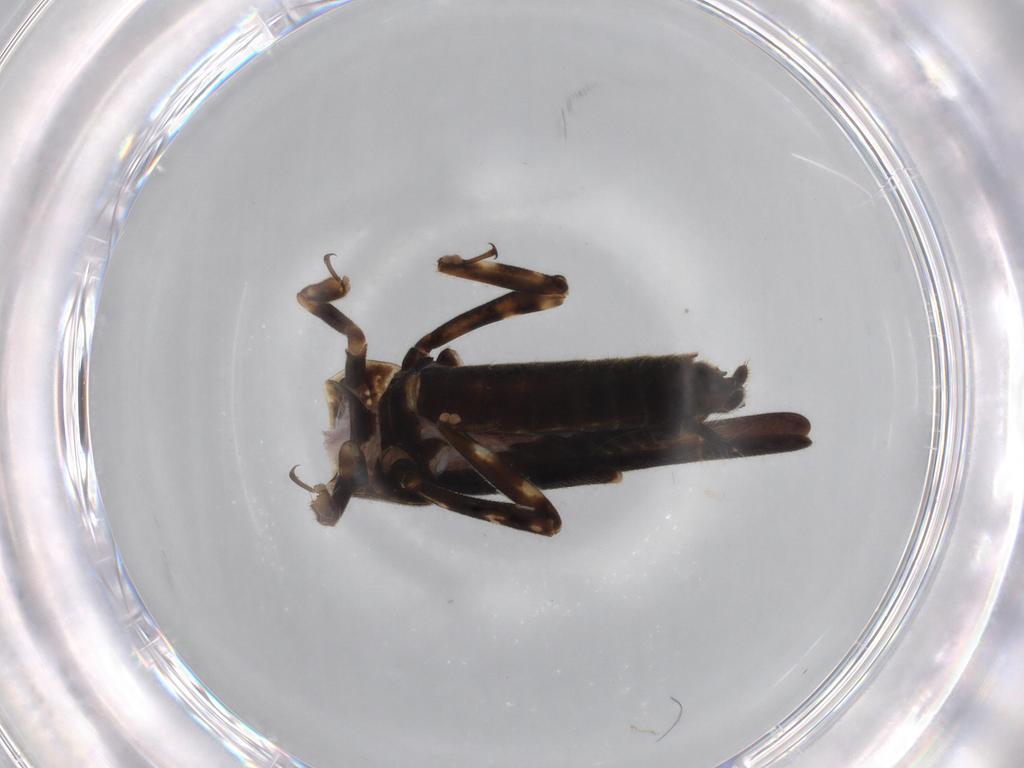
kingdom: Animalia
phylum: Arthropoda
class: Insecta
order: Orthoptera
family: Ripipterygidae
